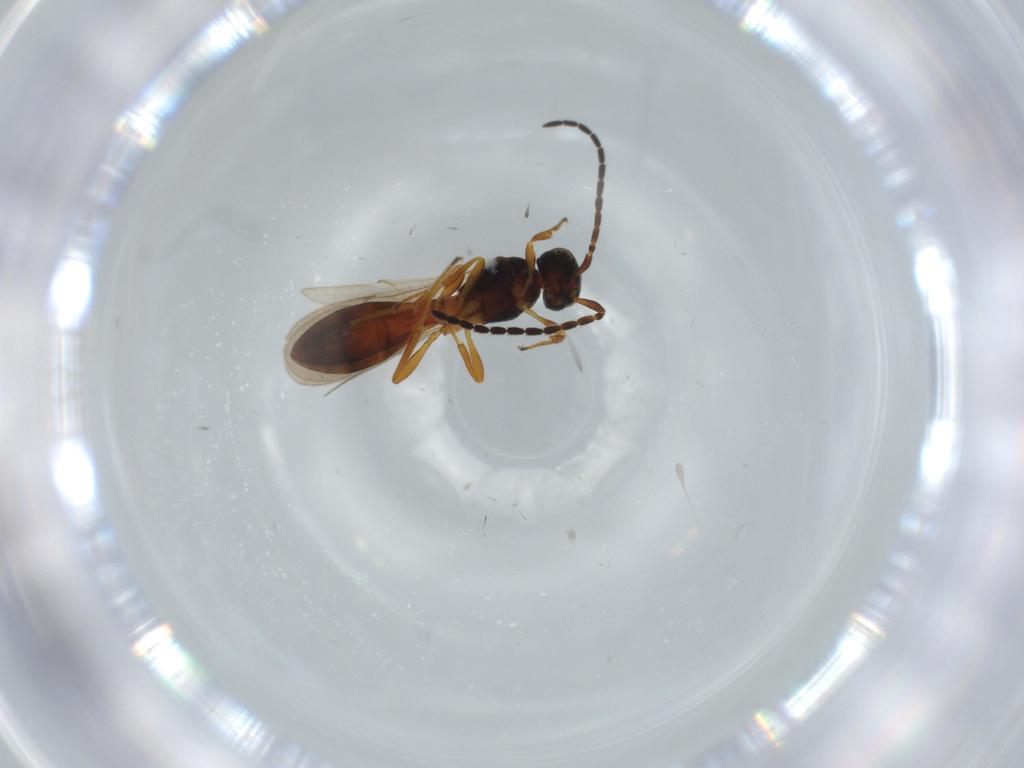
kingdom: Animalia
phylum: Arthropoda
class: Insecta
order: Hymenoptera
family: Scelionidae
